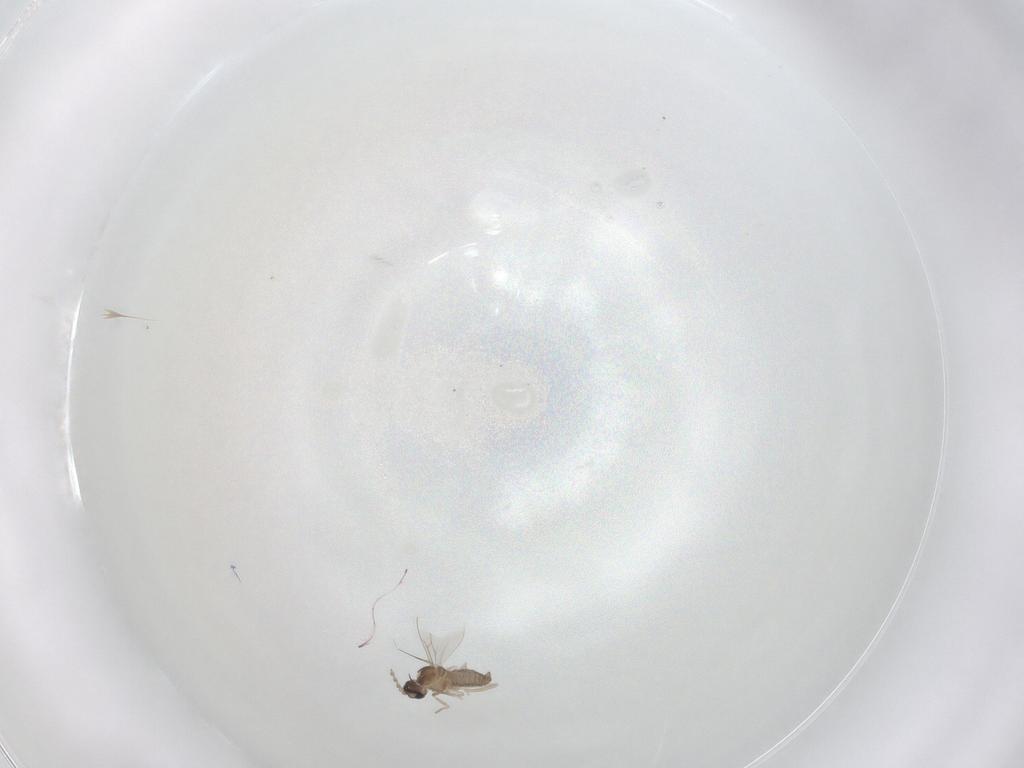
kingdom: Animalia
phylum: Arthropoda
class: Insecta
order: Diptera
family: Cecidomyiidae
